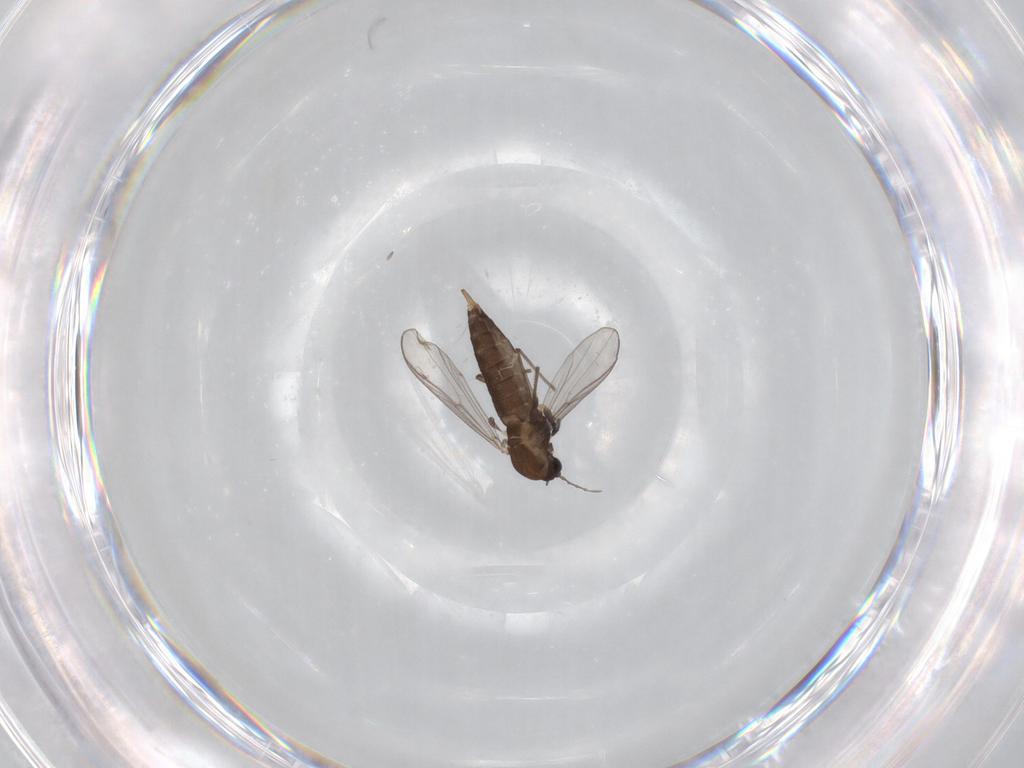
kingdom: Animalia
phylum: Arthropoda
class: Insecta
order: Diptera
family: Chironomidae
